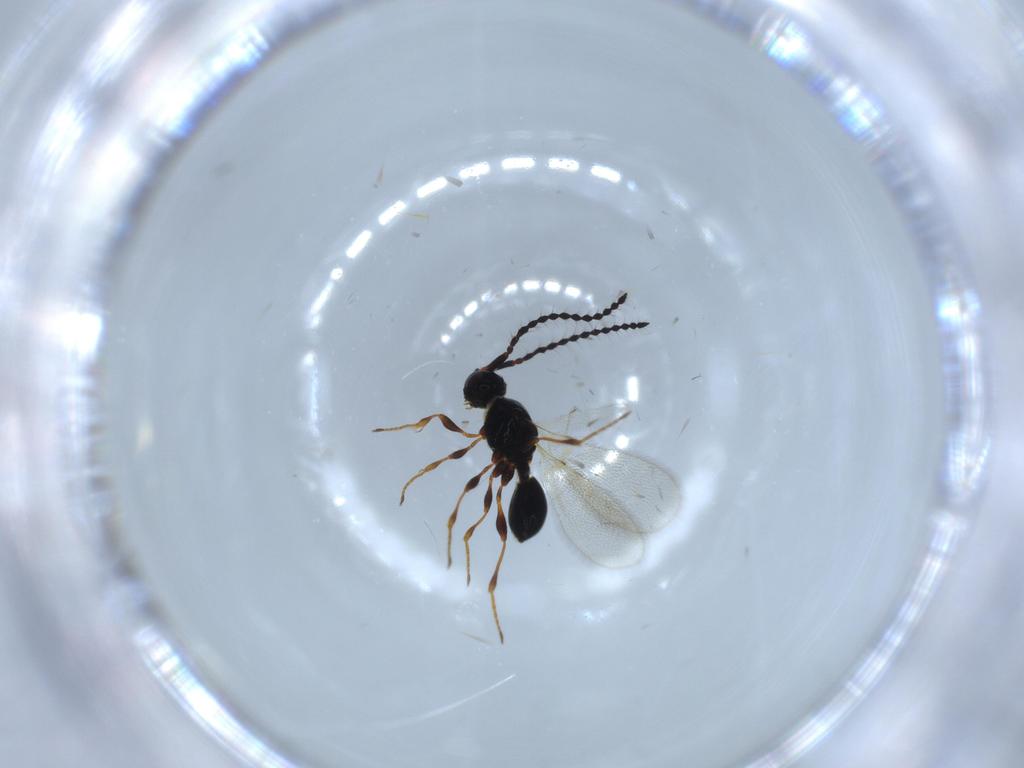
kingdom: Animalia
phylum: Arthropoda
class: Insecta
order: Hymenoptera
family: Diapriidae
